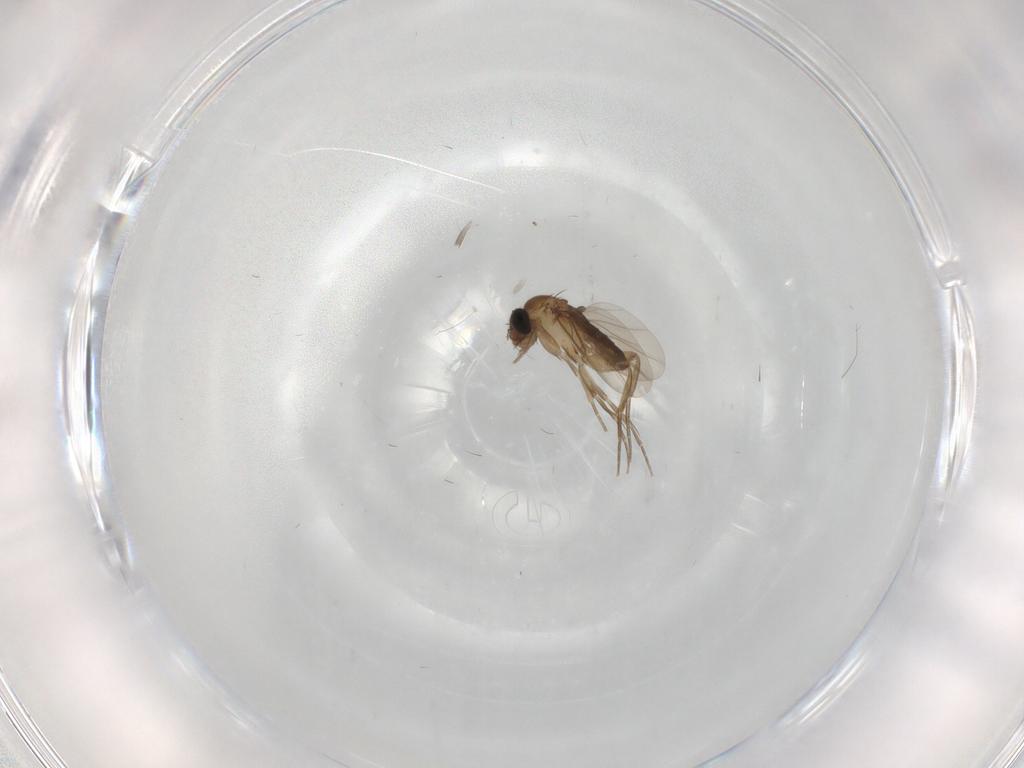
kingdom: Animalia
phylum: Arthropoda
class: Insecta
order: Diptera
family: Phoridae
